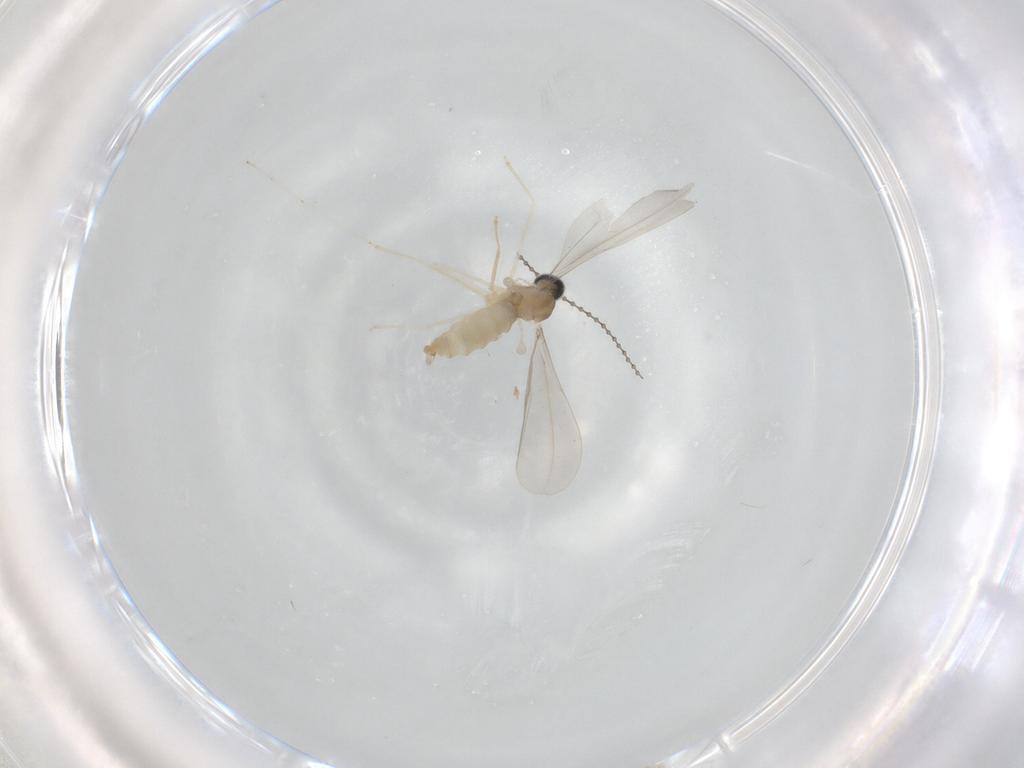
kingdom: Animalia
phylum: Arthropoda
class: Insecta
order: Diptera
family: Cecidomyiidae
